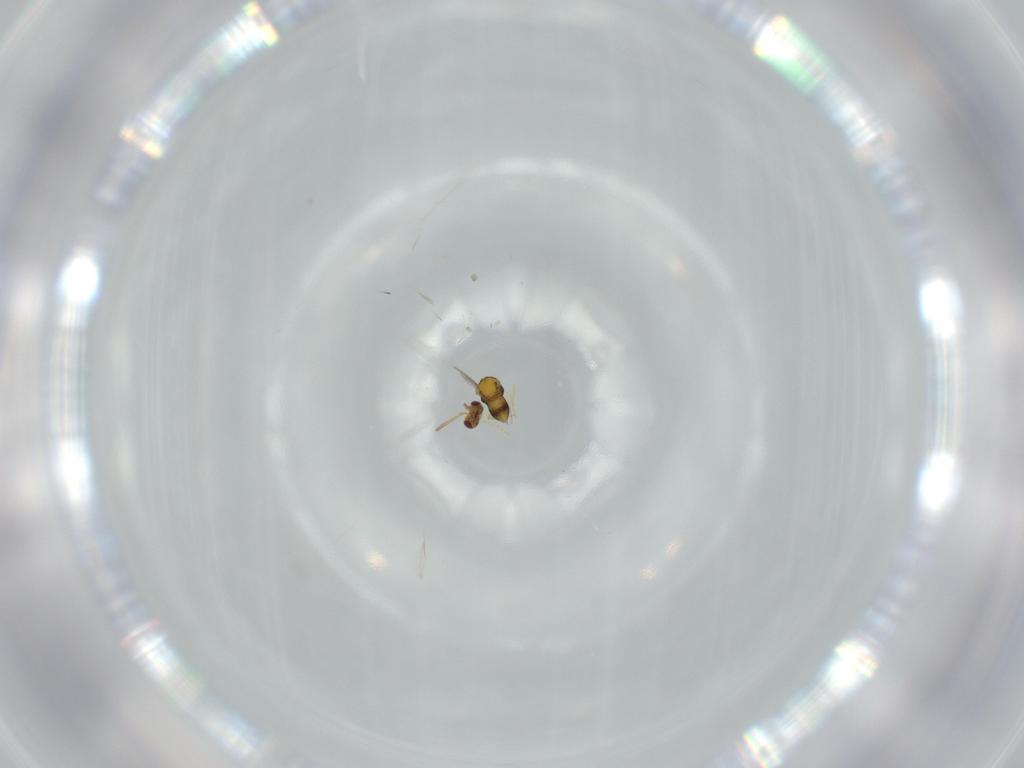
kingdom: Animalia
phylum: Arthropoda
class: Insecta
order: Hymenoptera
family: Aphelinidae
